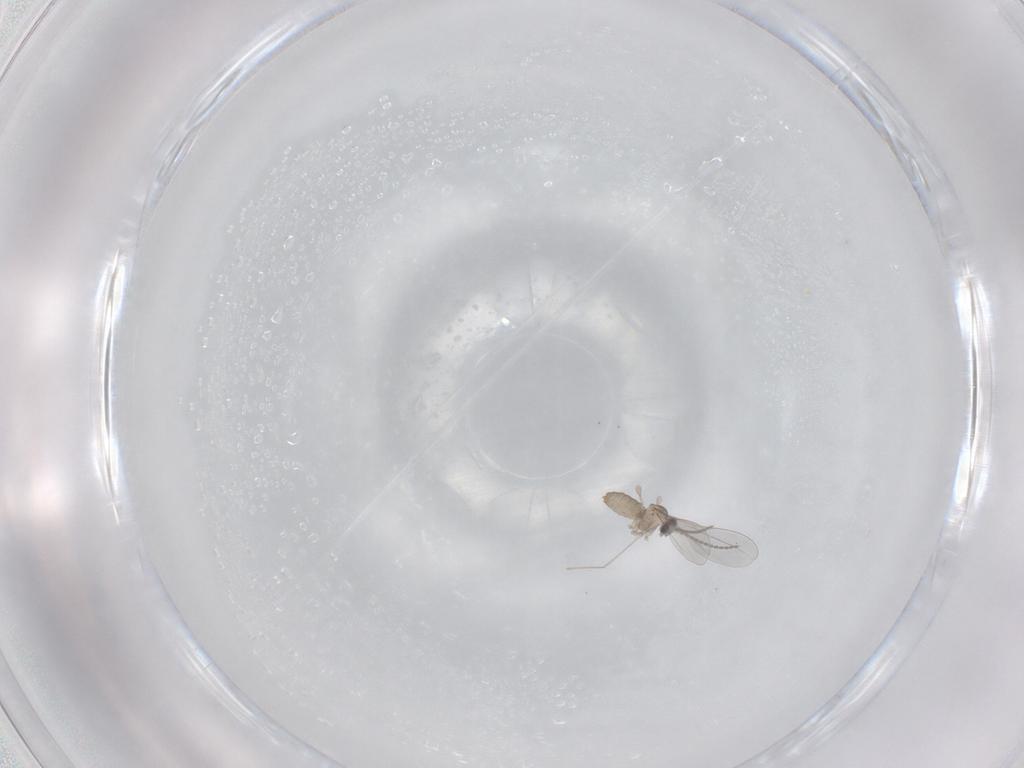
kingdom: Animalia
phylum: Arthropoda
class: Insecta
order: Diptera
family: Cecidomyiidae
